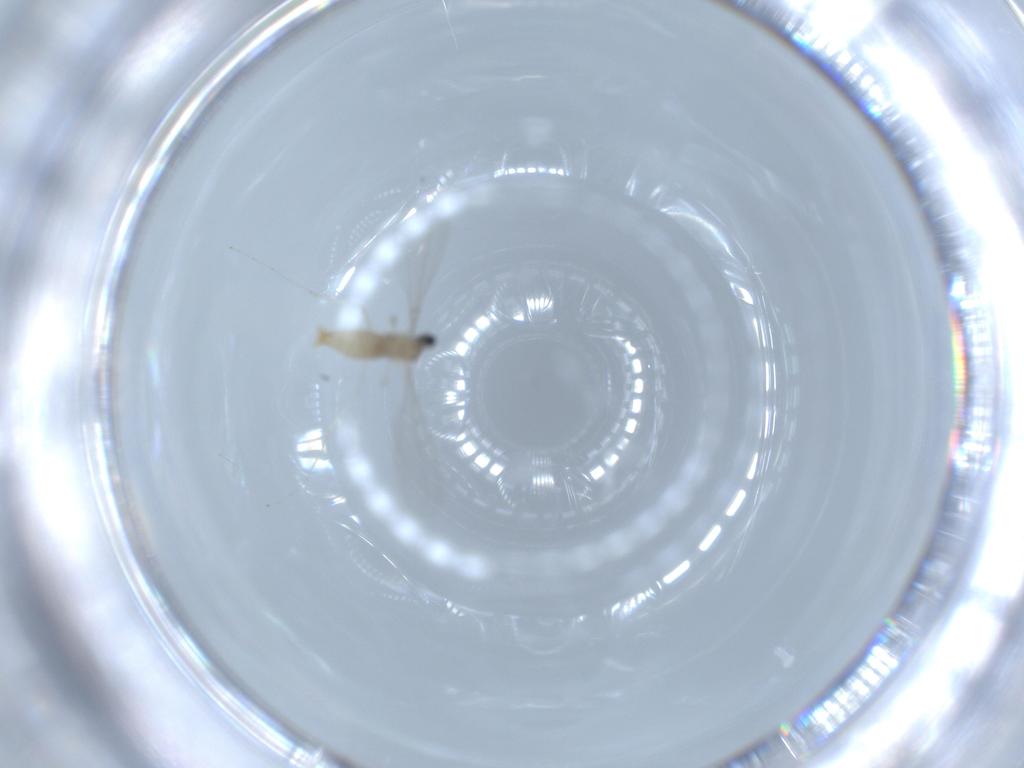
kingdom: Animalia
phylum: Arthropoda
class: Insecta
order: Diptera
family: Cecidomyiidae
